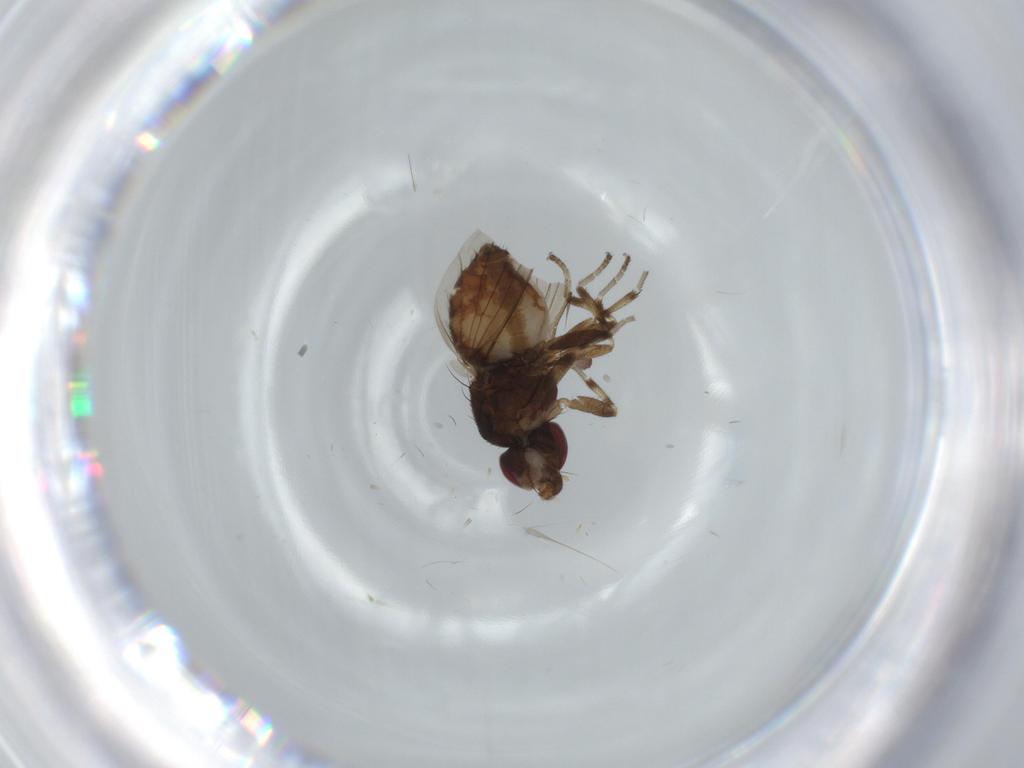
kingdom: Animalia
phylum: Arthropoda
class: Insecta
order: Diptera
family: Heleomyzidae
